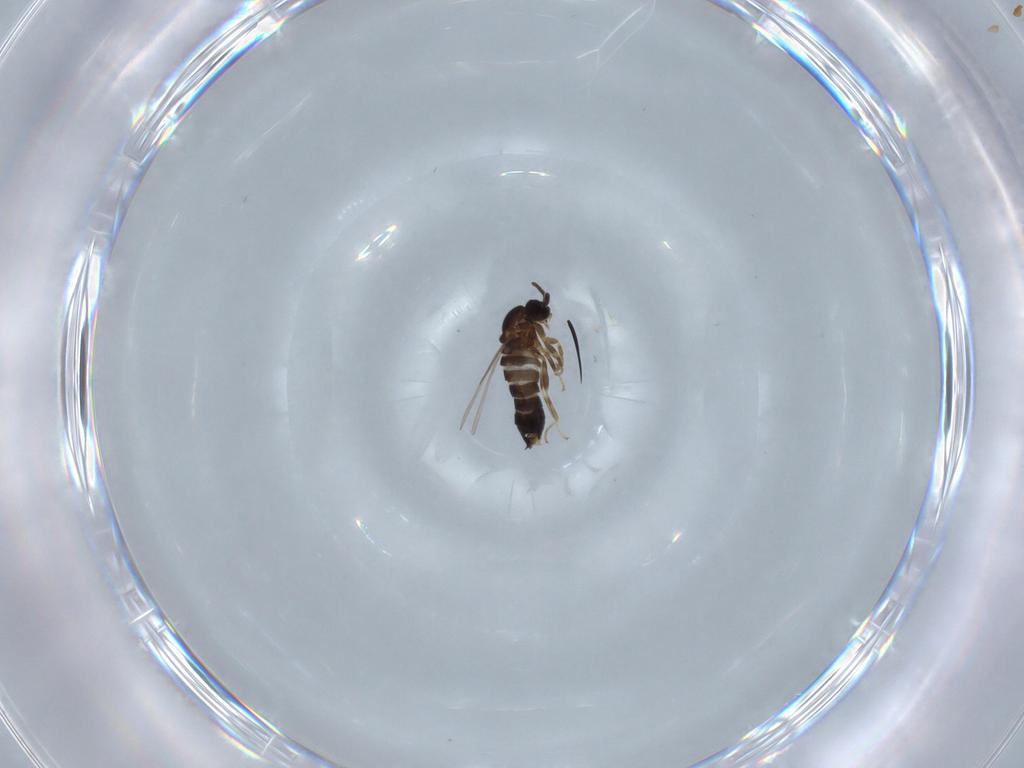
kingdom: Animalia
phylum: Arthropoda
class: Insecta
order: Diptera
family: Scatopsidae
